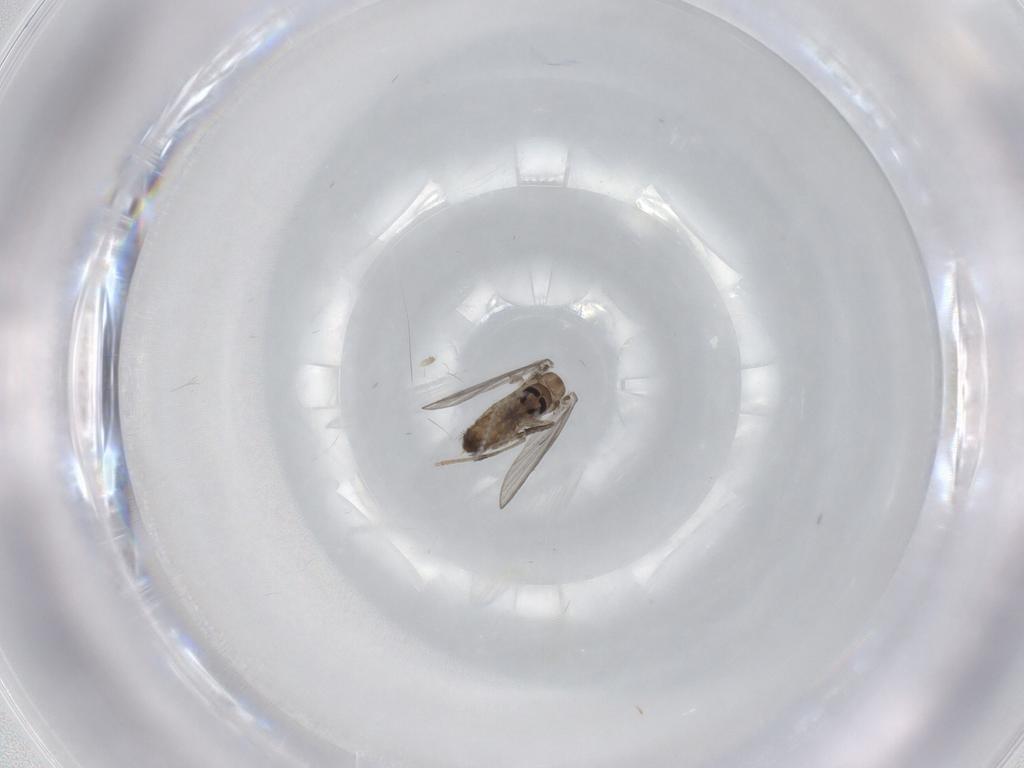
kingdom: Animalia
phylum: Arthropoda
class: Insecta
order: Diptera
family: Psychodidae
